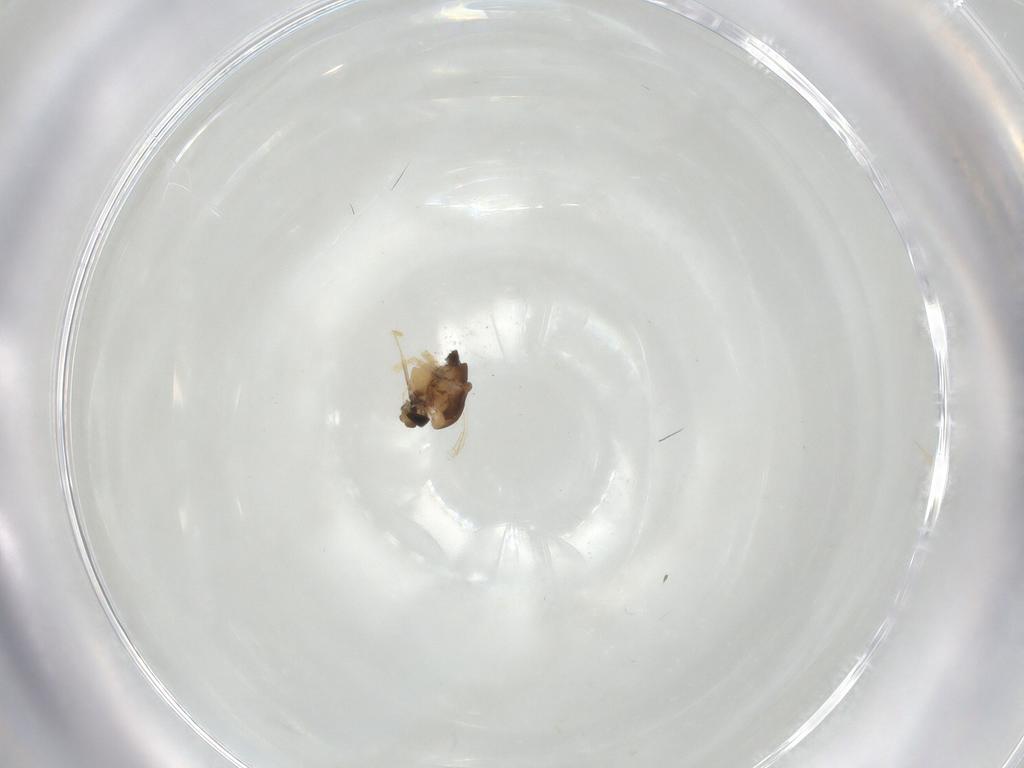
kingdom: Animalia
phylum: Arthropoda
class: Insecta
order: Diptera
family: Chironomidae
